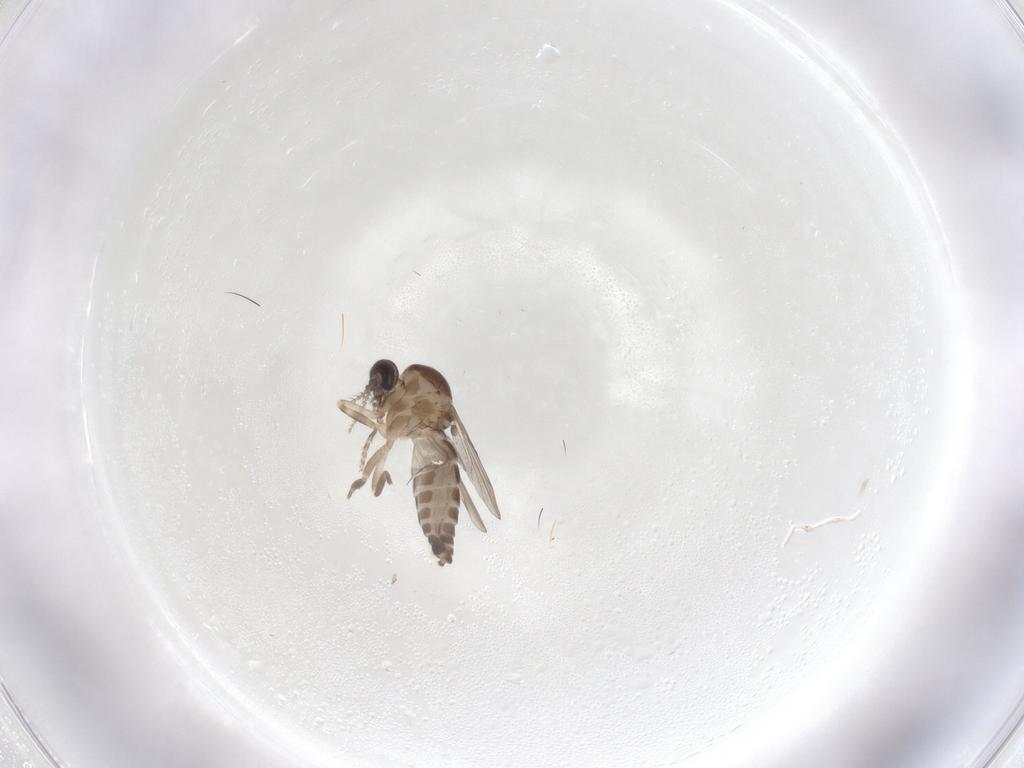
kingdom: Animalia
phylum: Arthropoda
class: Insecta
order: Diptera
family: Ceratopogonidae
